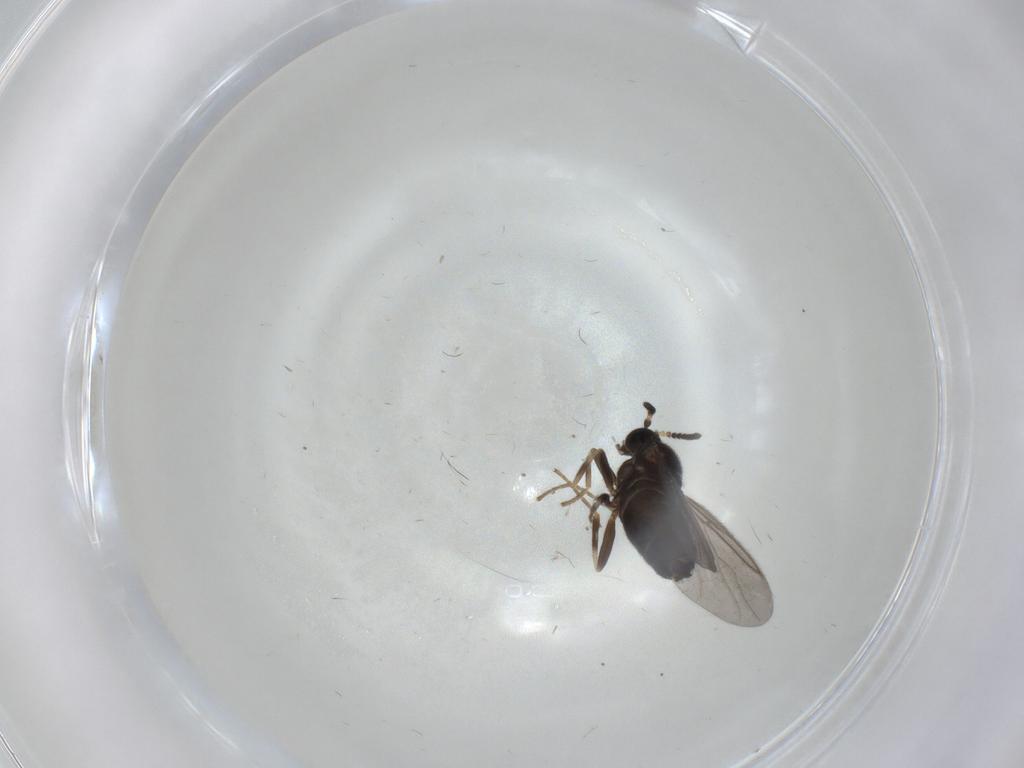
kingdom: Animalia
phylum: Arthropoda
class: Insecta
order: Diptera
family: Scatopsidae
